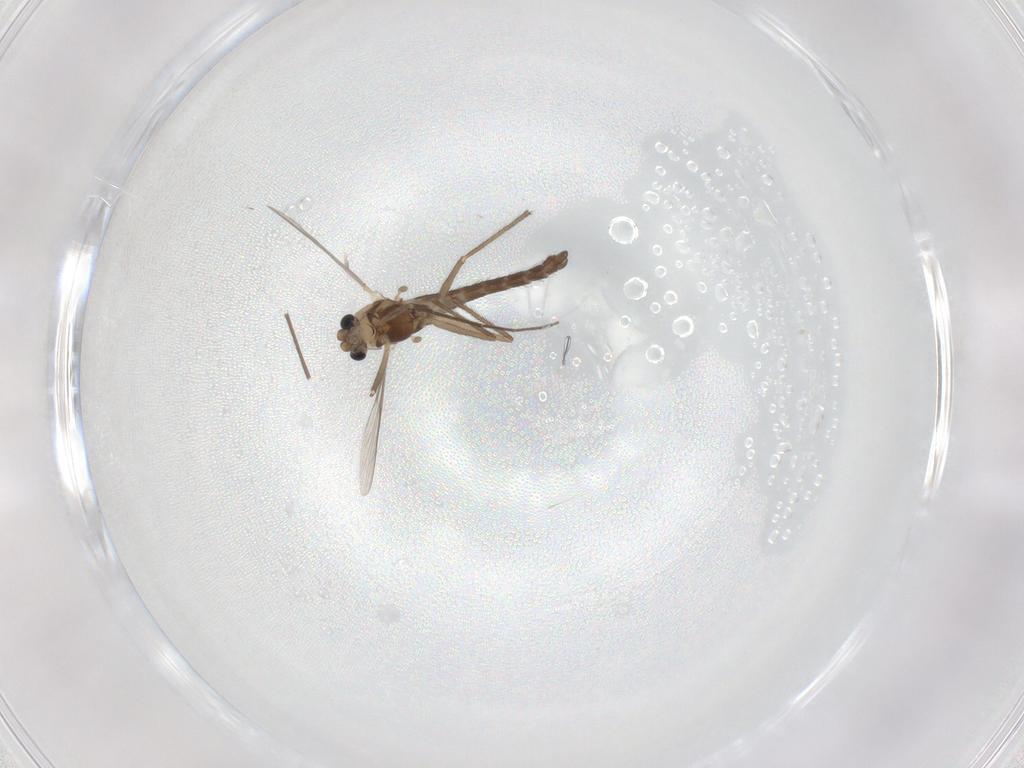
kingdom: Animalia
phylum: Arthropoda
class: Insecta
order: Diptera
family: Chironomidae
